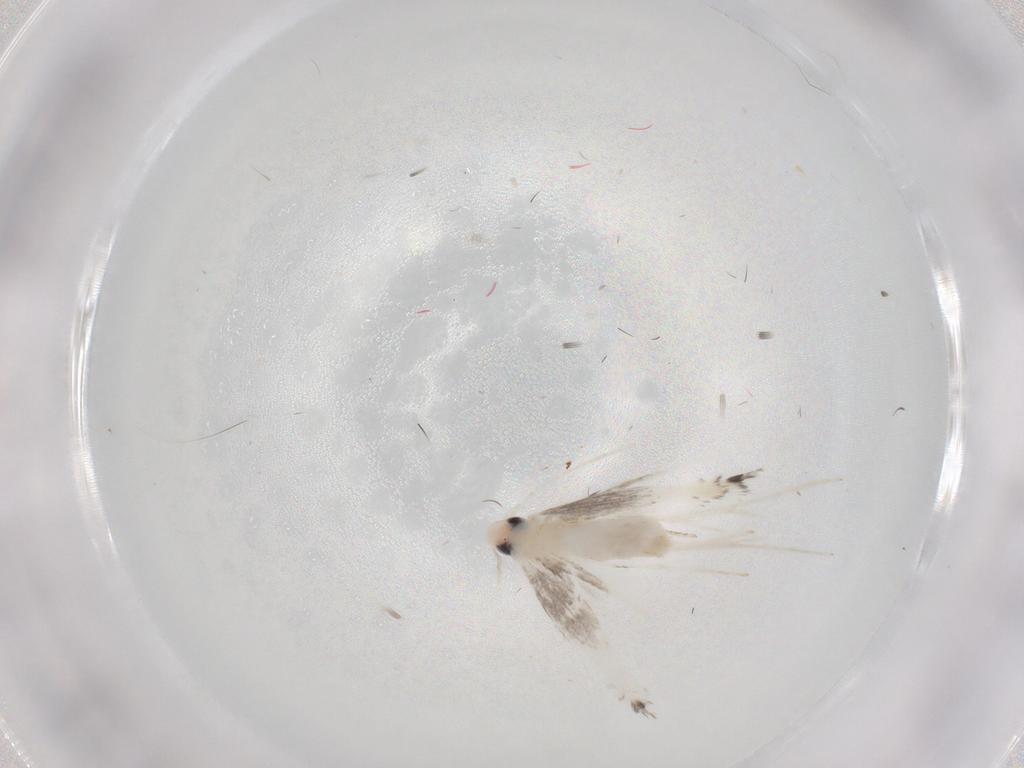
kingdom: Animalia
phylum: Arthropoda
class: Insecta
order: Lepidoptera
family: Gracillariidae
